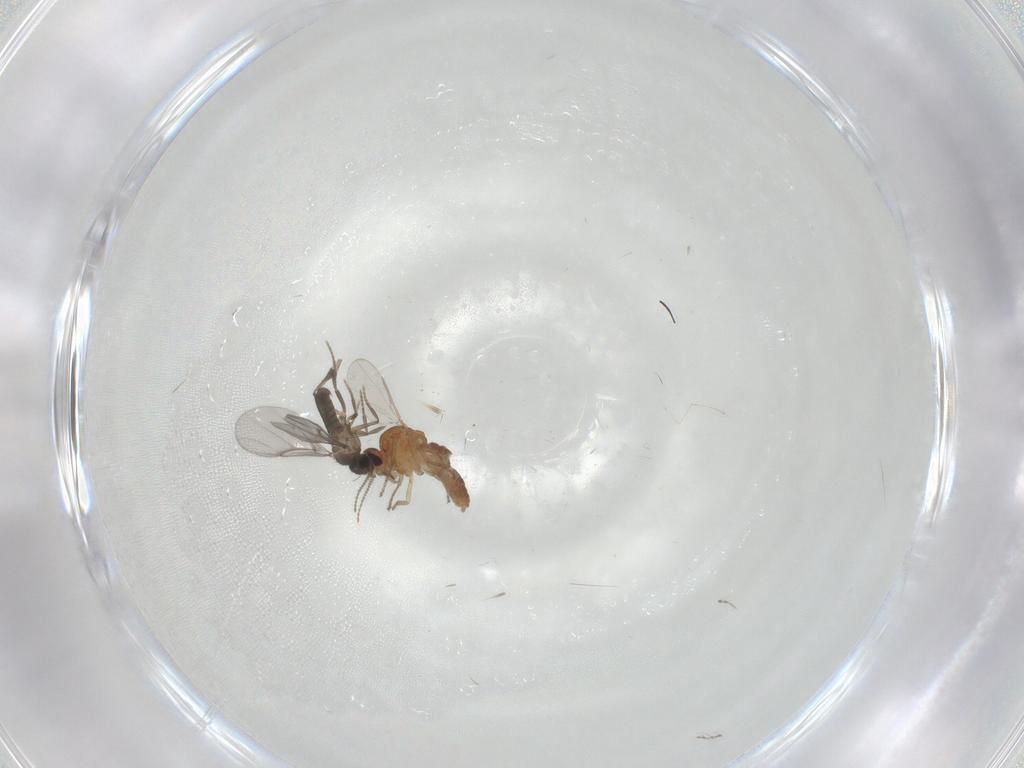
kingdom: Animalia
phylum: Arthropoda
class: Insecta
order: Diptera
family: Ceratopogonidae
